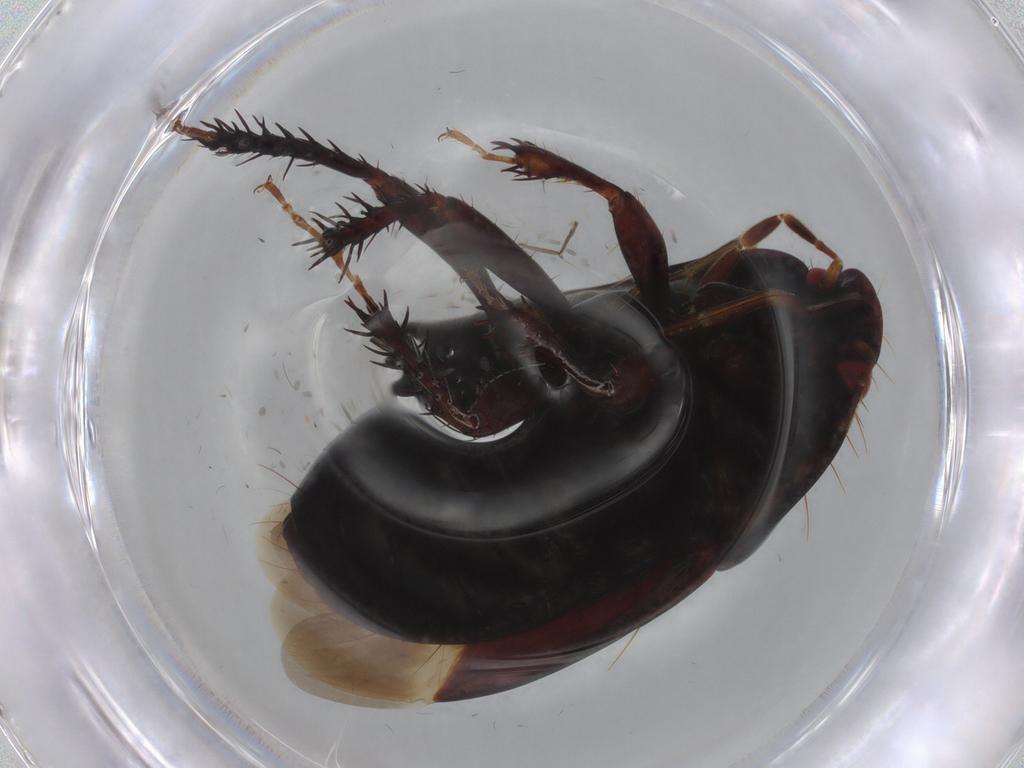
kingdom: Animalia
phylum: Arthropoda
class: Insecta
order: Hemiptera
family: Cydnidae
